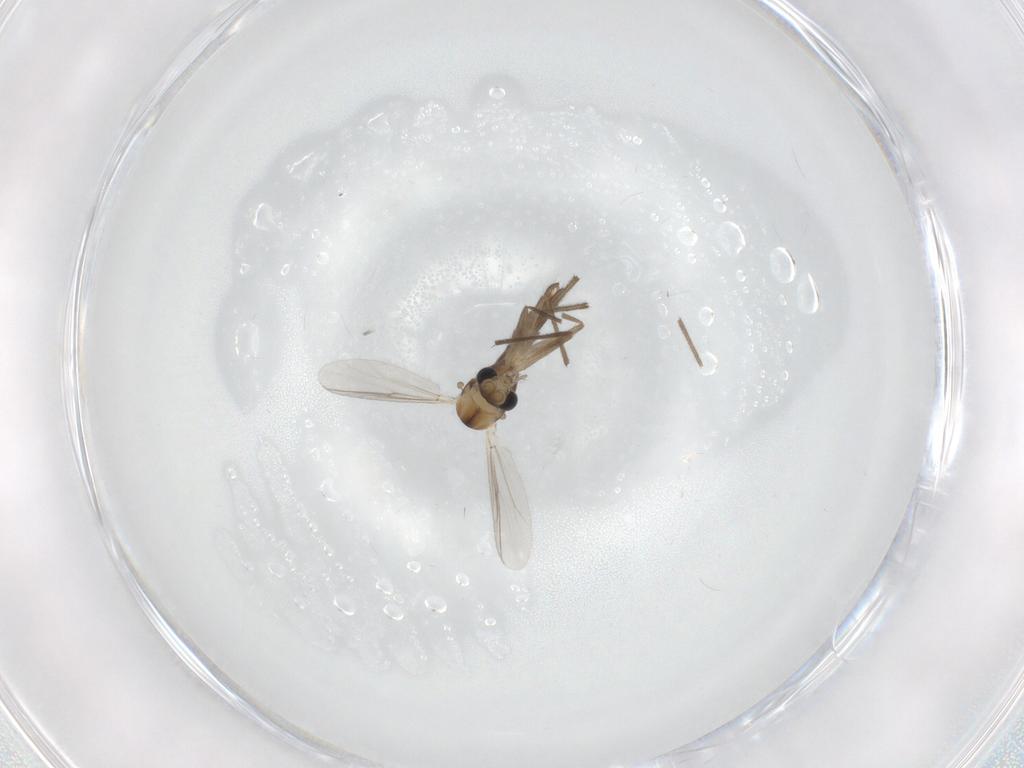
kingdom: Animalia
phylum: Arthropoda
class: Insecta
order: Diptera
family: Chironomidae
